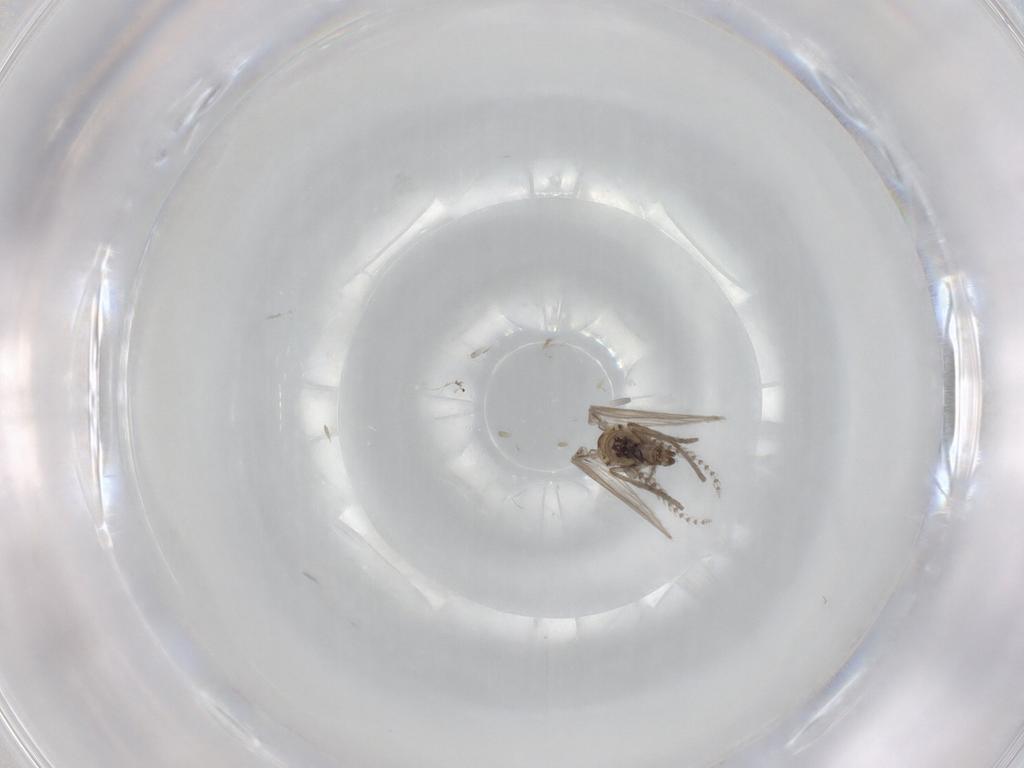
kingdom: Animalia
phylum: Arthropoda
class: Insecta
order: Diptera
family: Psychodidae
